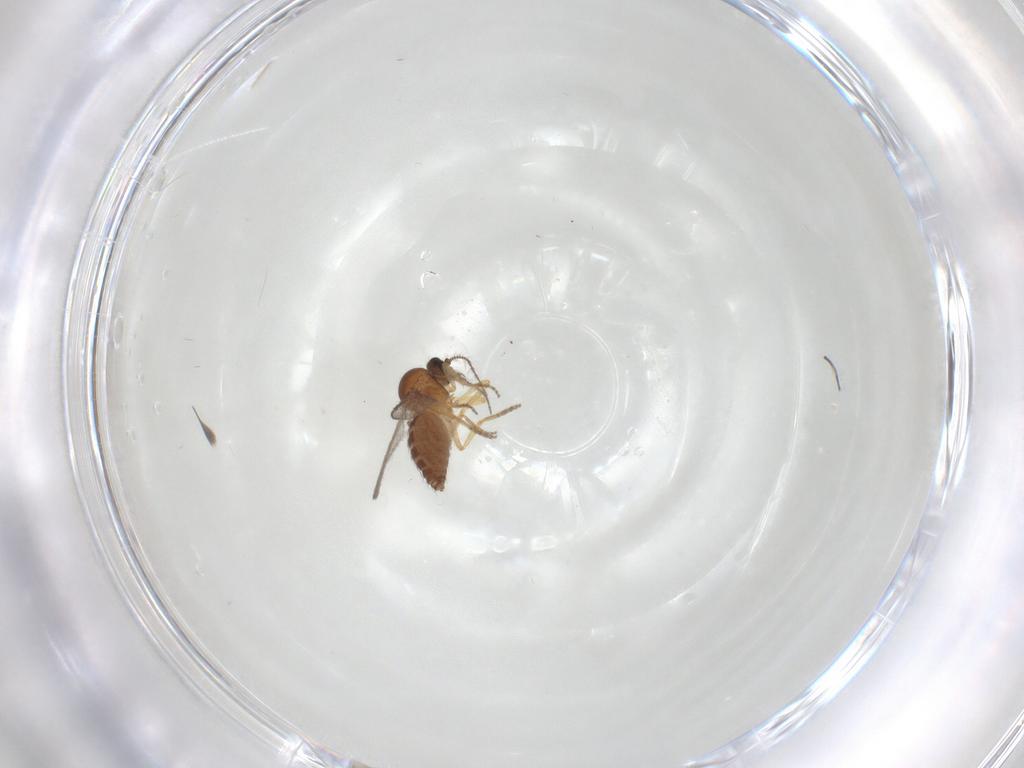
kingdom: Animalia
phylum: Arthropoda
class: Insecta
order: Diptera
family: Ceratopogonidae
